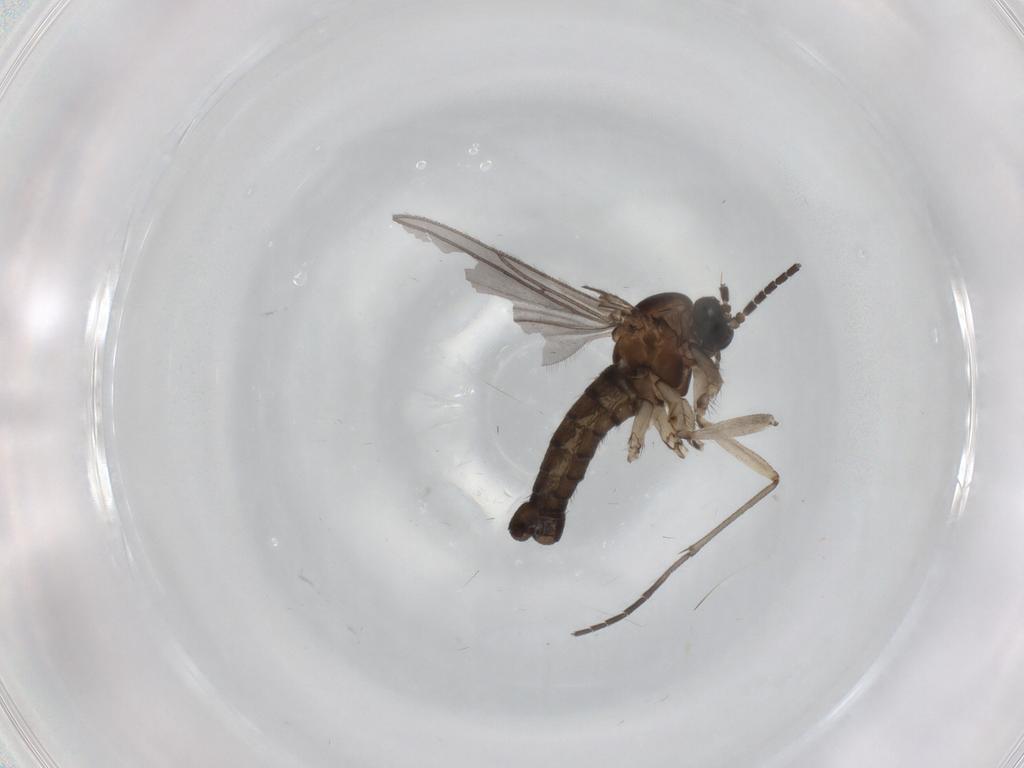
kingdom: Animalia
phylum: Arthropoda
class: Insecta
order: Diptera
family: Sciaridae
